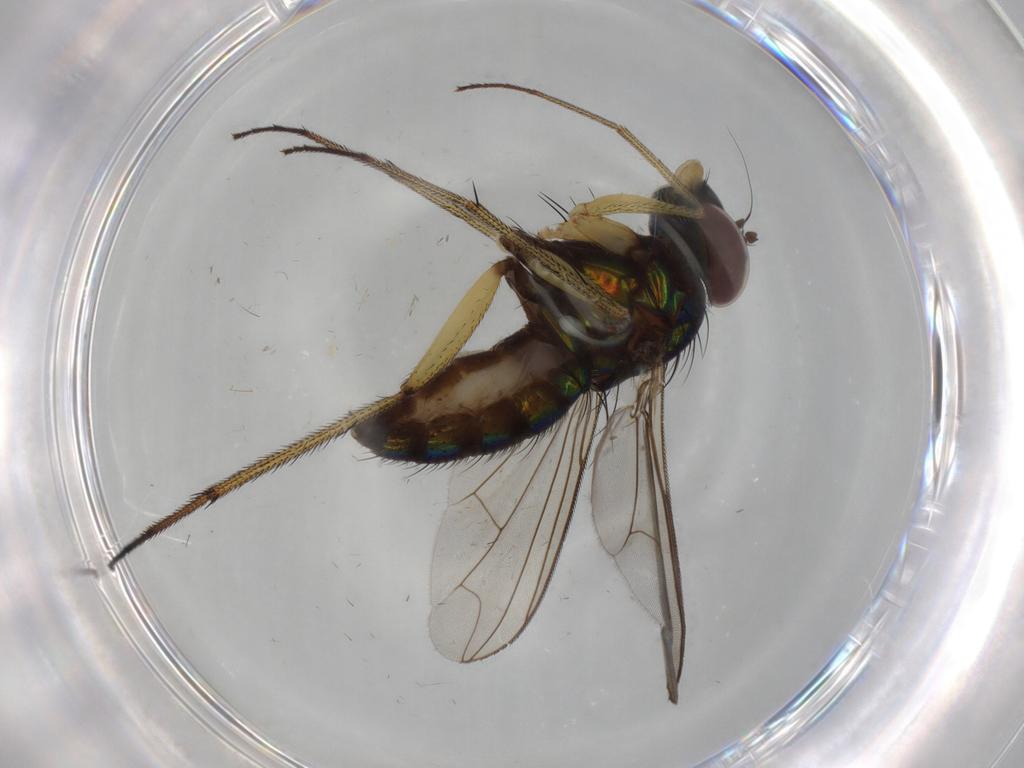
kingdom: Animalia
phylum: Arthropoda
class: Insecta
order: Diptera
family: Dolichopodidae
